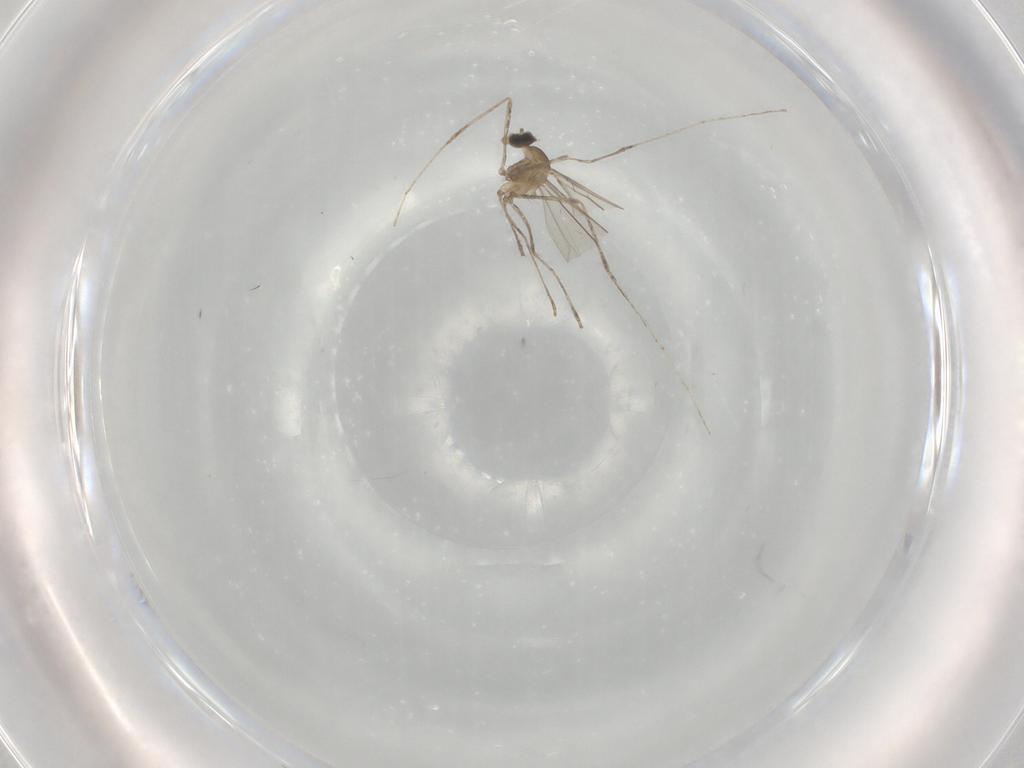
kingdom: Animalia
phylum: Arthropoda
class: Insecta
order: Diptera
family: Cecidomyiidae
